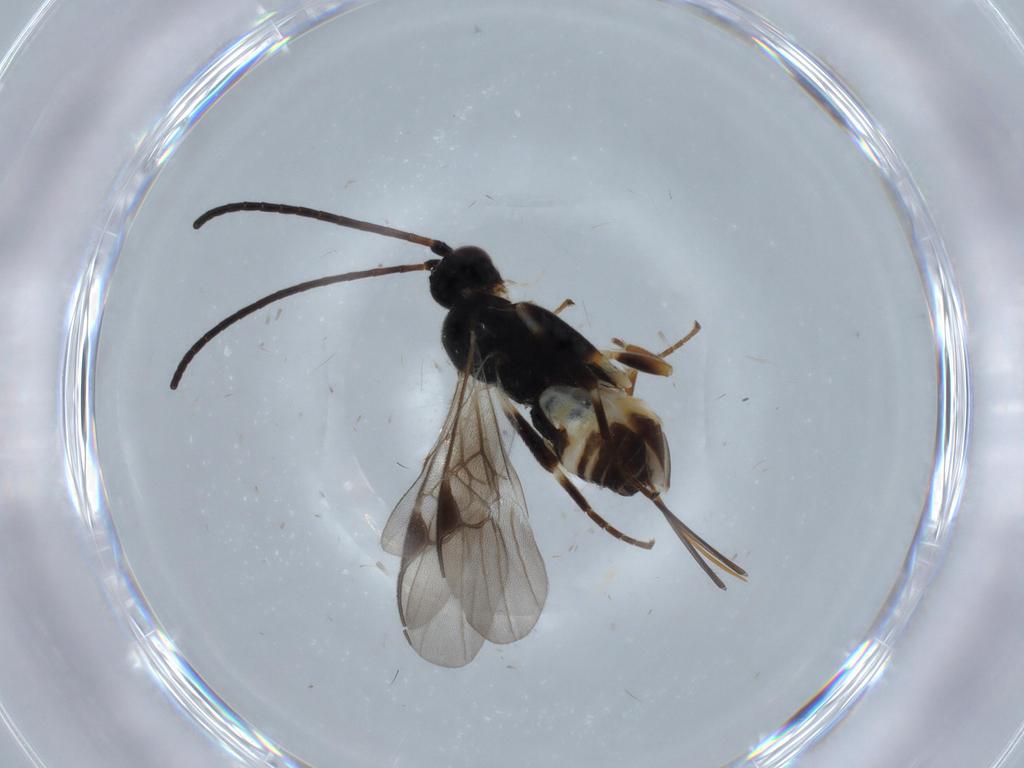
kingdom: Animalia
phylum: Arthropoda
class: Insecta
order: Hymenoptera
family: Braconidae
